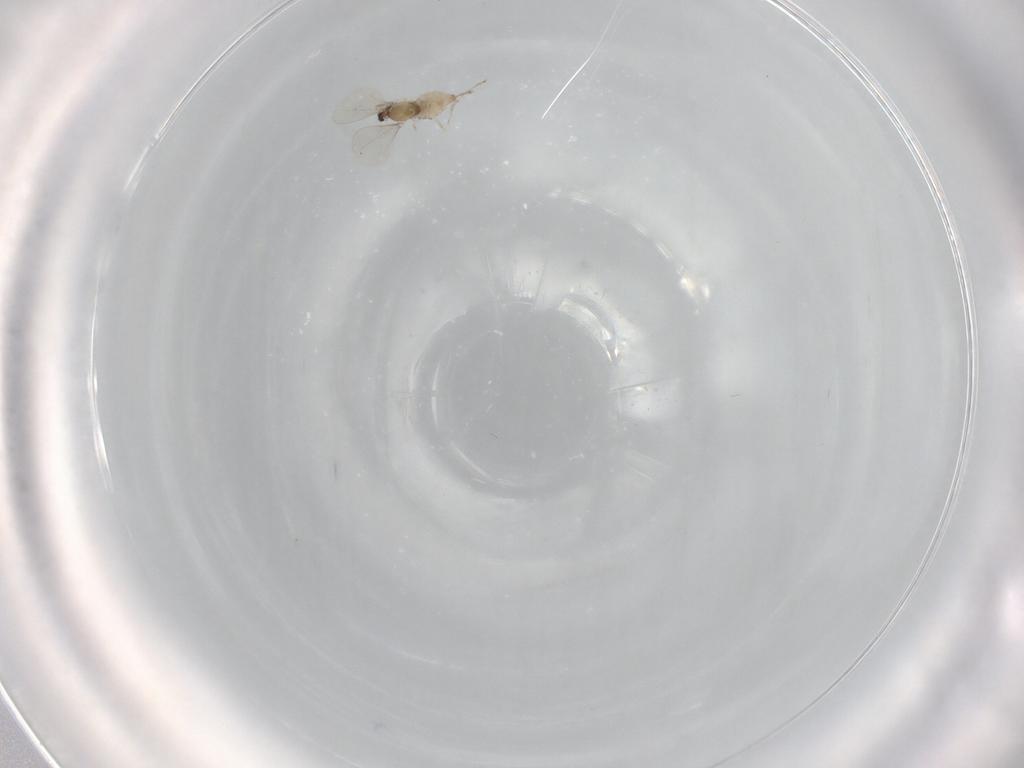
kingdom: Animalia
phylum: Arthropoda
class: Insecta
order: Diptera
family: Cecidomyiidae
